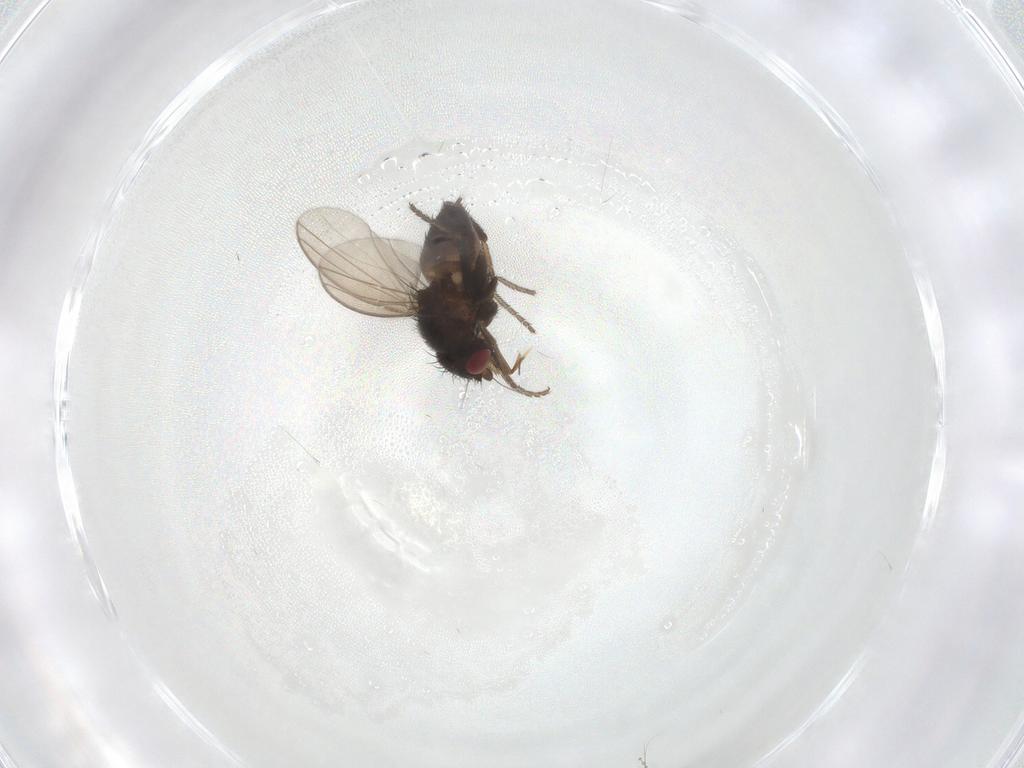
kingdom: Animalia
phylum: Arthropoda
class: Insecta
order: Diptera
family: Milichiidae
